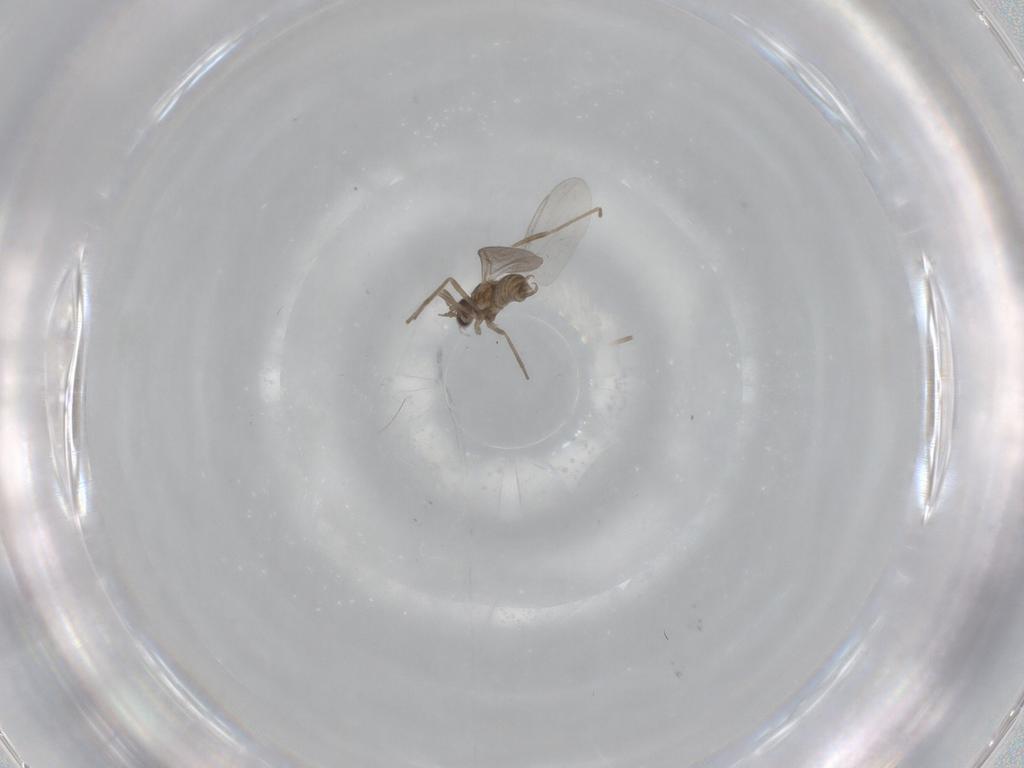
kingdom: Animalia
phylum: Arthropoda
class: Insecta
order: Diptera
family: Cecidomyiidae
